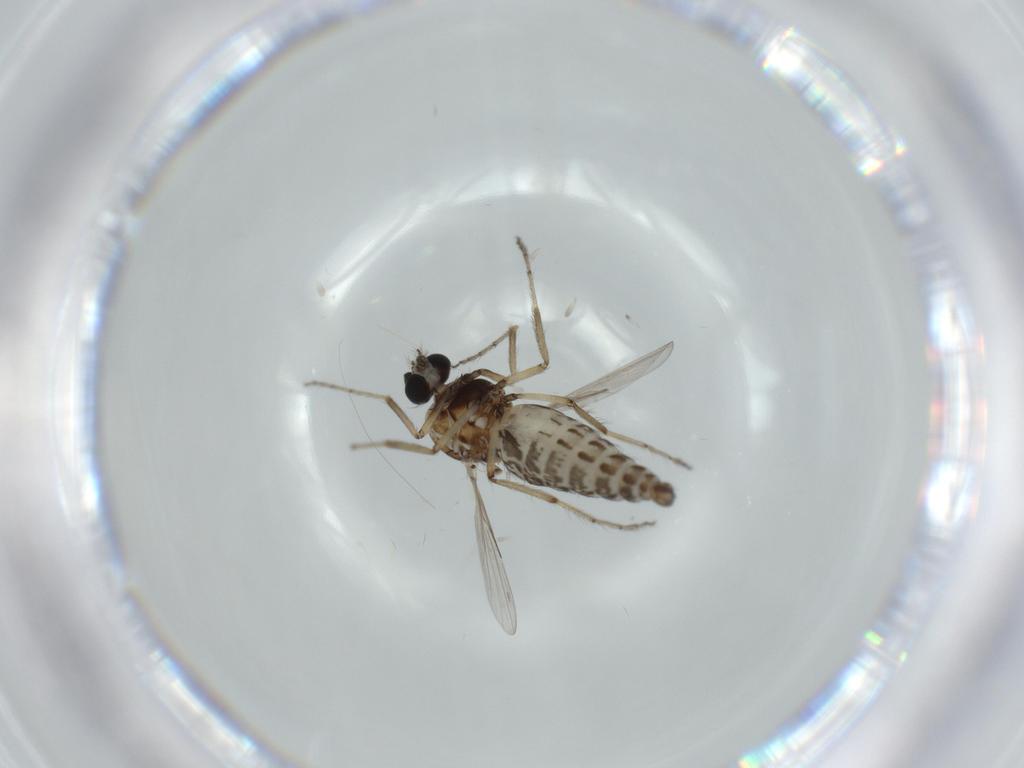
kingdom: Animalia
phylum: Arthropoda
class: Insecta
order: Diptera
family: Ceratopogonidae
